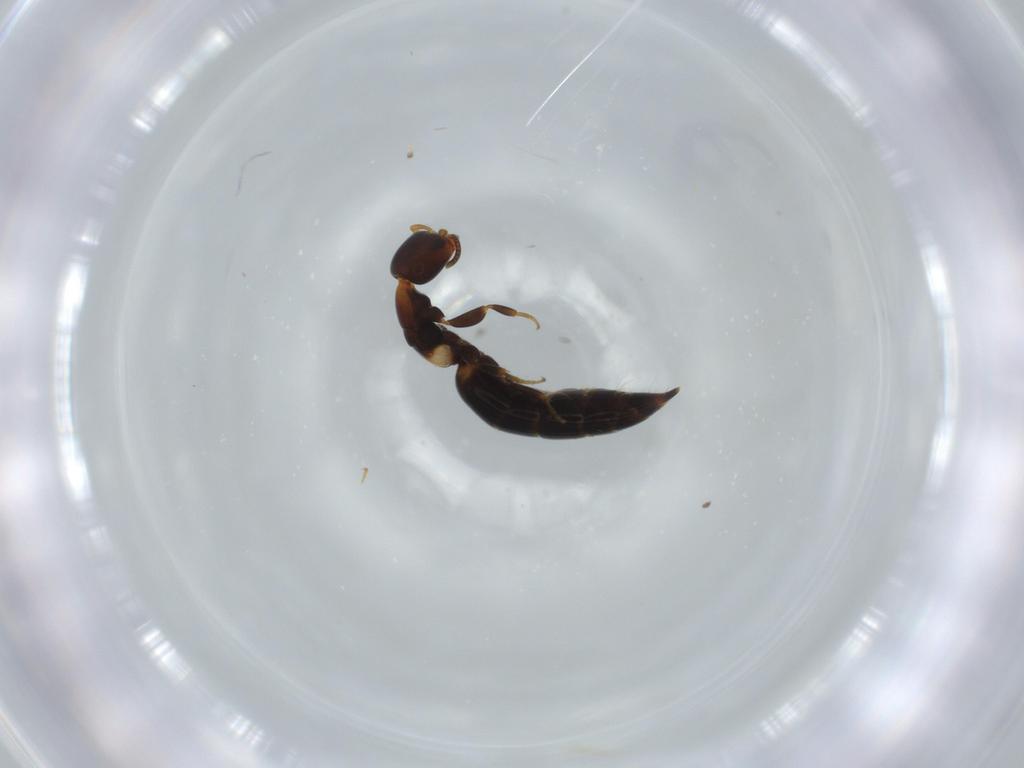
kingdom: Animalia
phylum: Arthropoda
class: Insecta
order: Hymenoptera
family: Bethylidae
